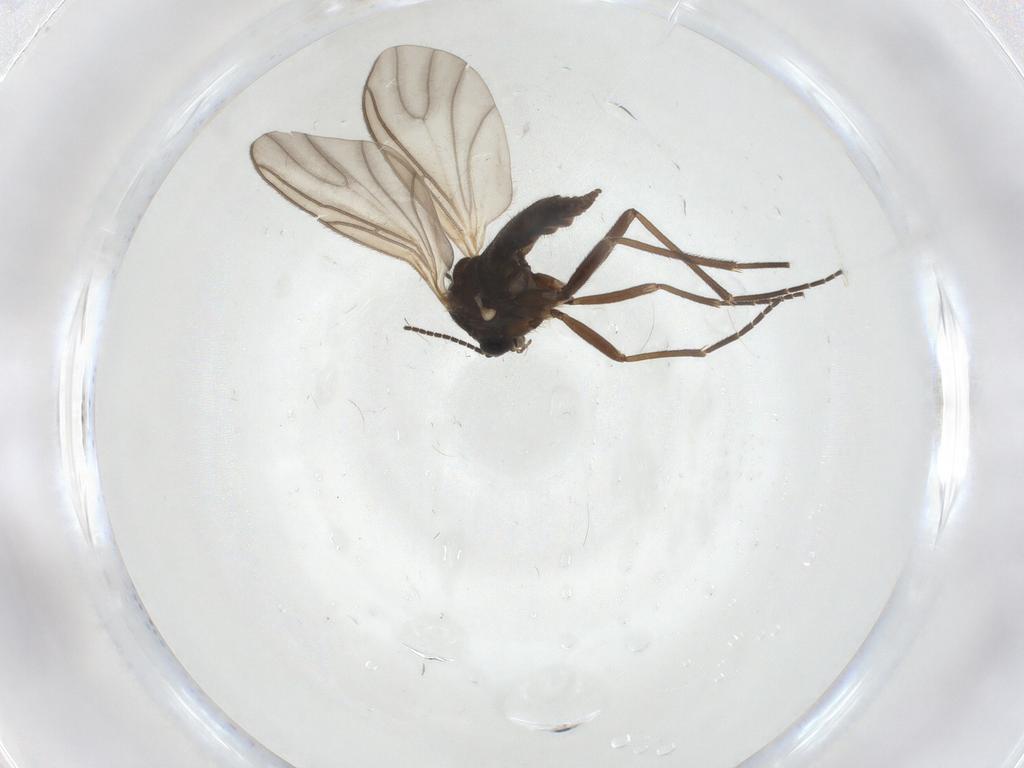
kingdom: Animalia
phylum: Arthropoda
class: Insecta
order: Diptera
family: Sciaridae
